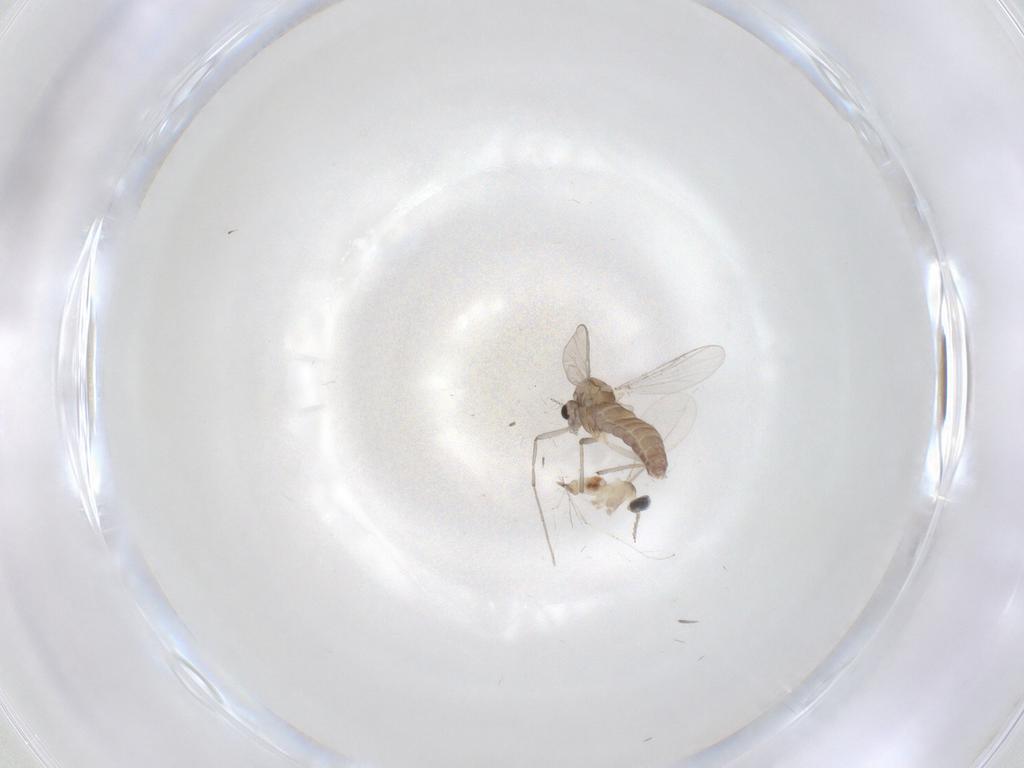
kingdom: Animalia
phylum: Arthropoda
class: Insecta
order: Diptera
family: Chironomidae
